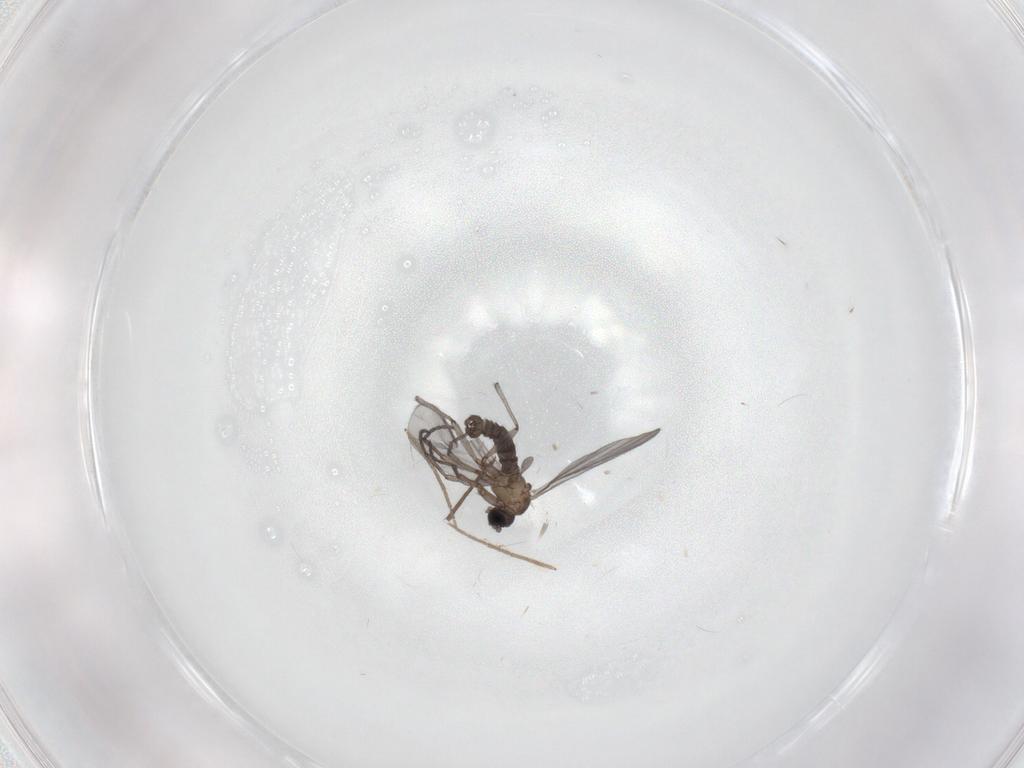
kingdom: Animalia
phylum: Arthropoda
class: Insecta
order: Diptera
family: Sciaridae
